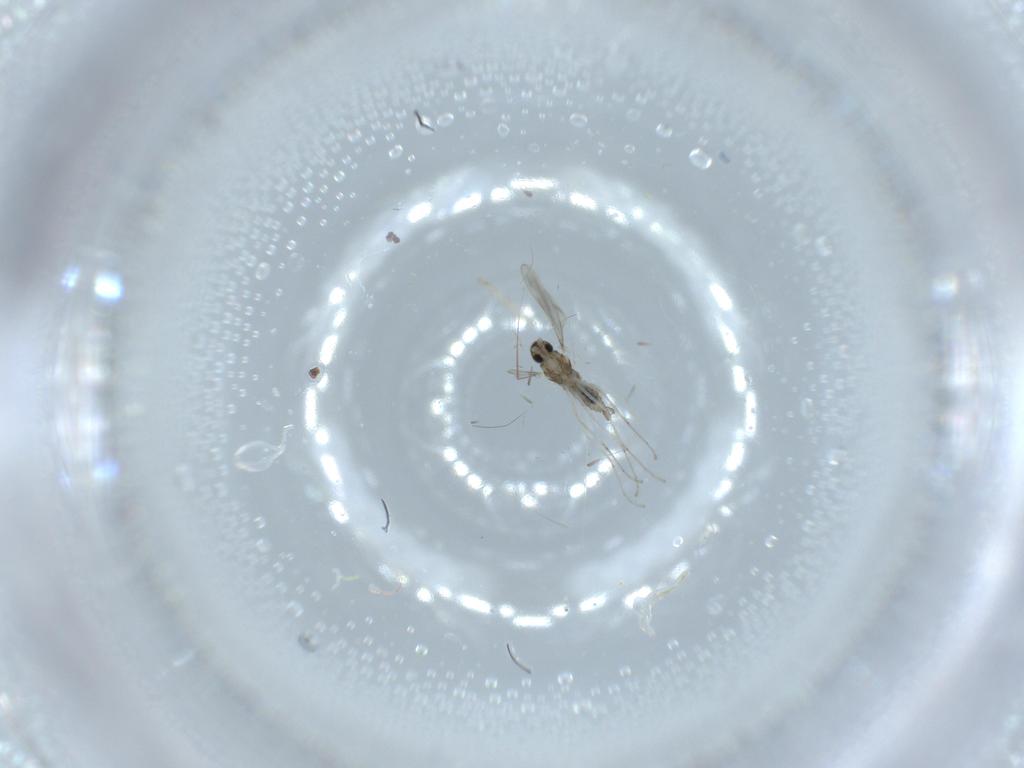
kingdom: Animalia
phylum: Arthropoda
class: Insecta
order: Diptera
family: Cecidomyiidae
